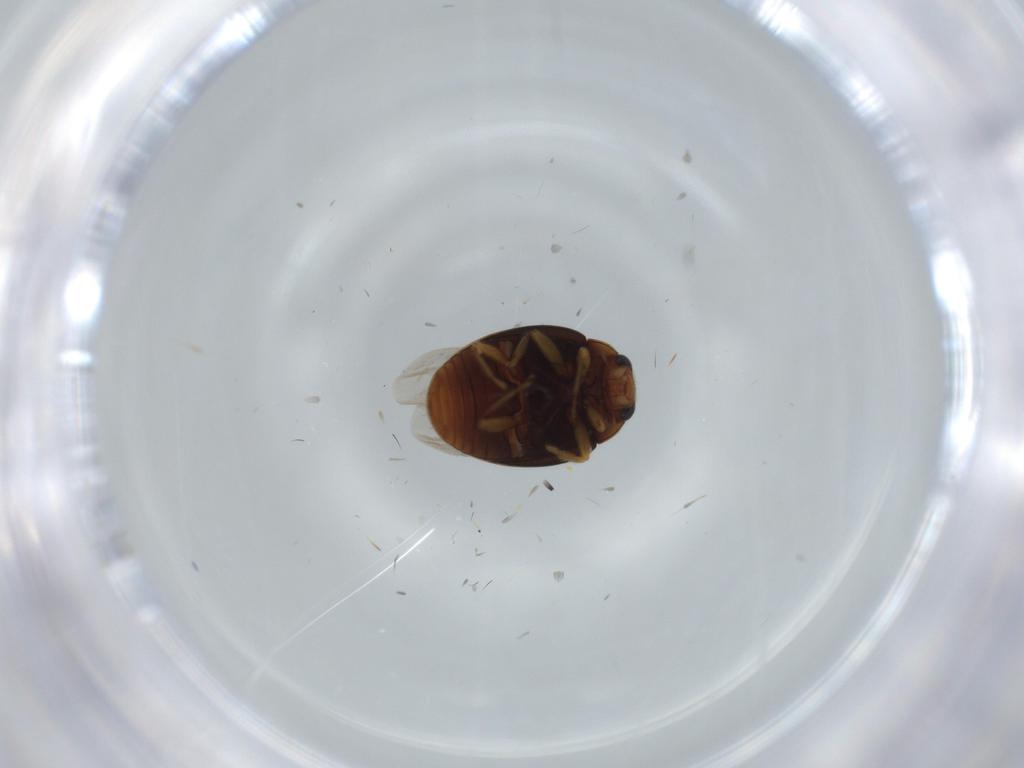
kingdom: Animalia
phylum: Arthropoda
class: Insecta
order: Coleoptera
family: Coccinellidae
